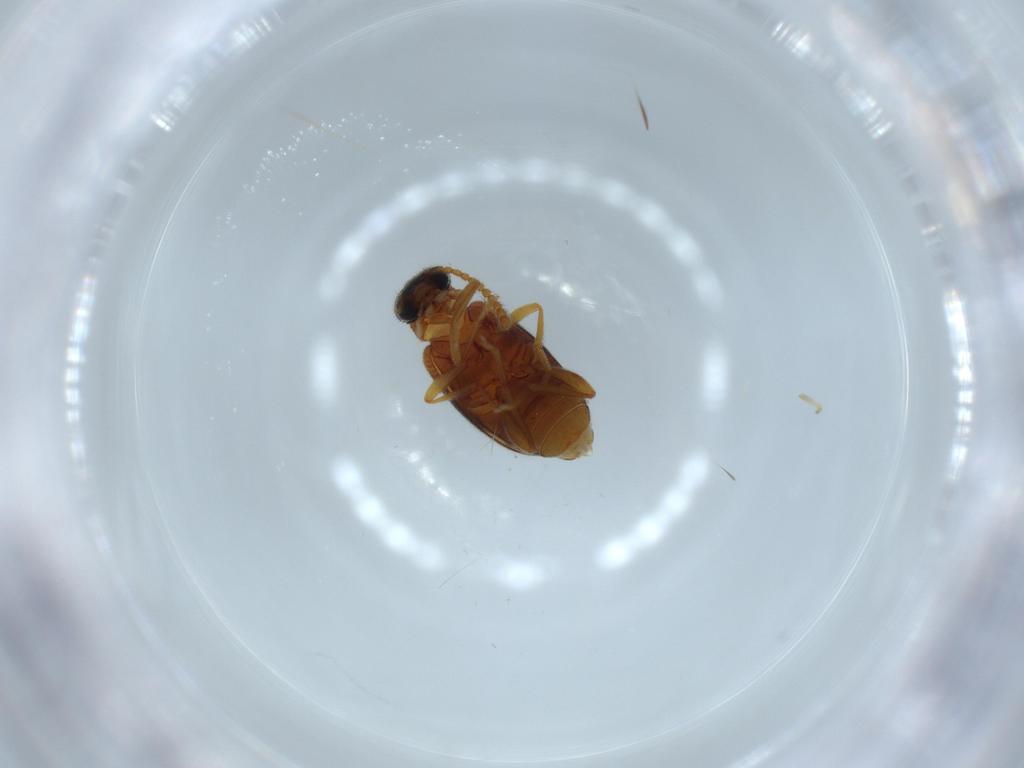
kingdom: Animalia
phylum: Arthropoda
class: Insecta
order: Coleoptera
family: Aderidae
